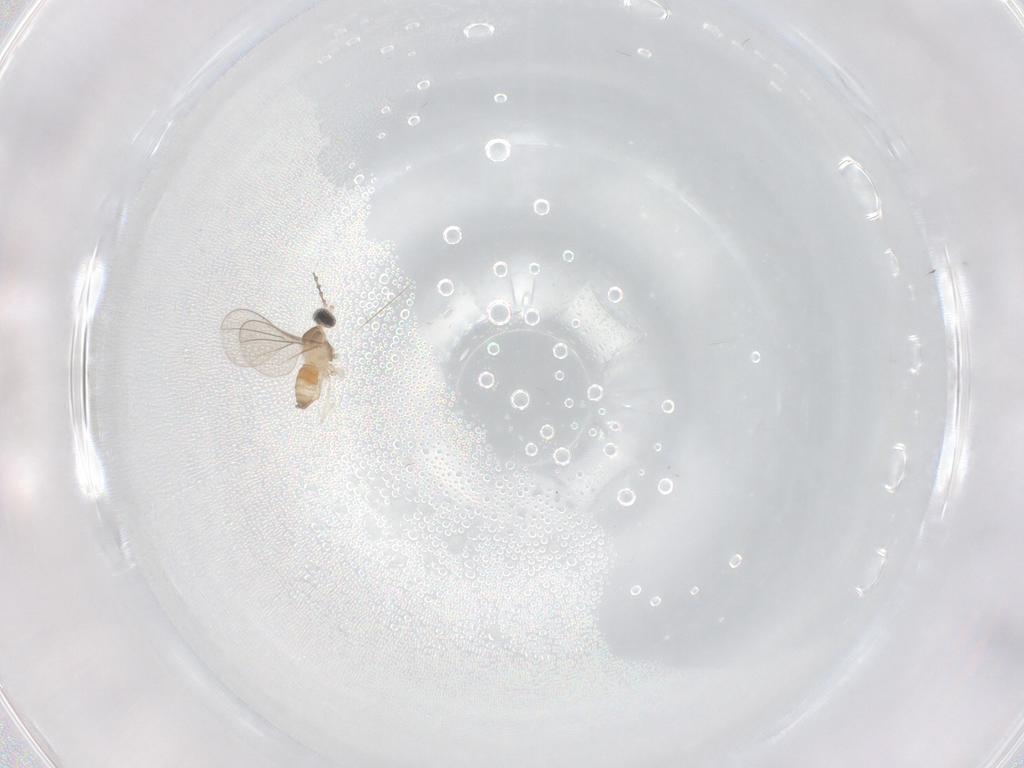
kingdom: Animalia
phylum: Arthropoda
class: Insecta
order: Diptera
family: Cecidomyiidae
